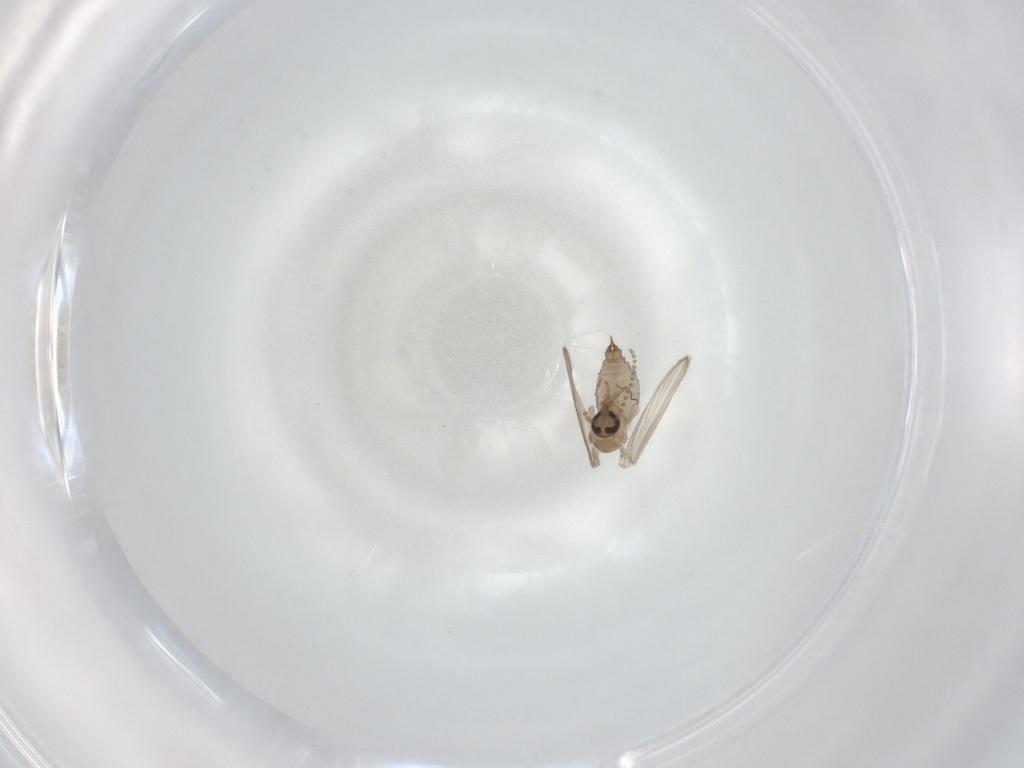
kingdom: Animalia
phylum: Arthropoda
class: Insecta
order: Diptera
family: Psychodidae
